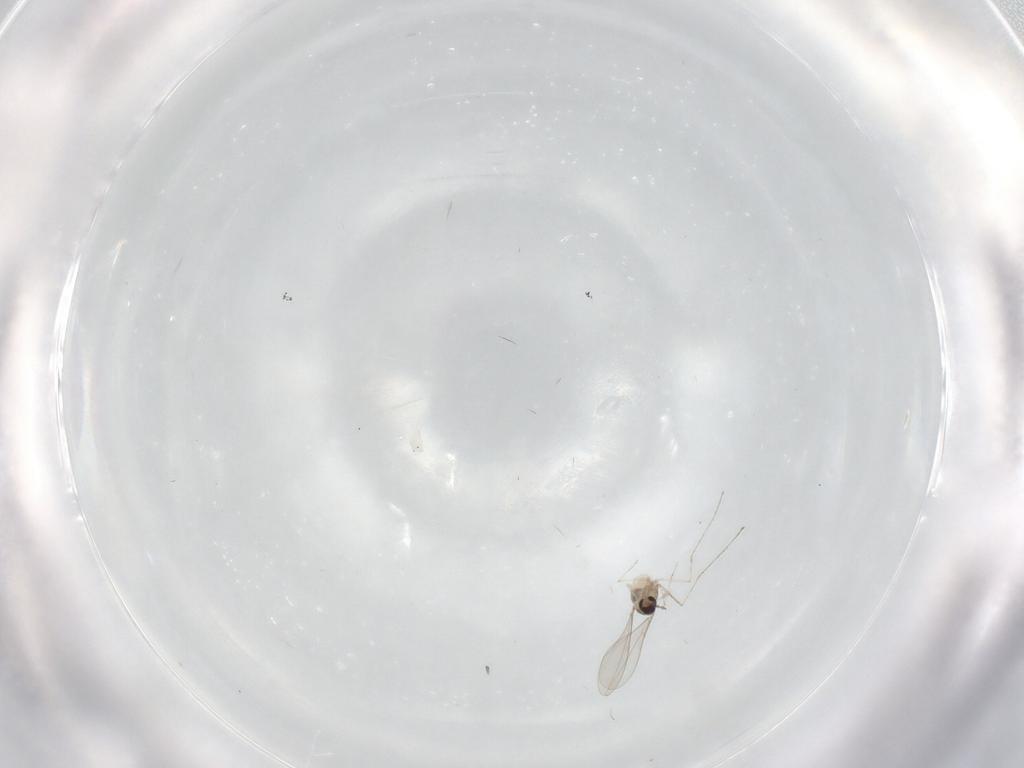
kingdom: Animalia
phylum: Arthropoda
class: Insecta
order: Diptera
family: Cecidomyiidae
